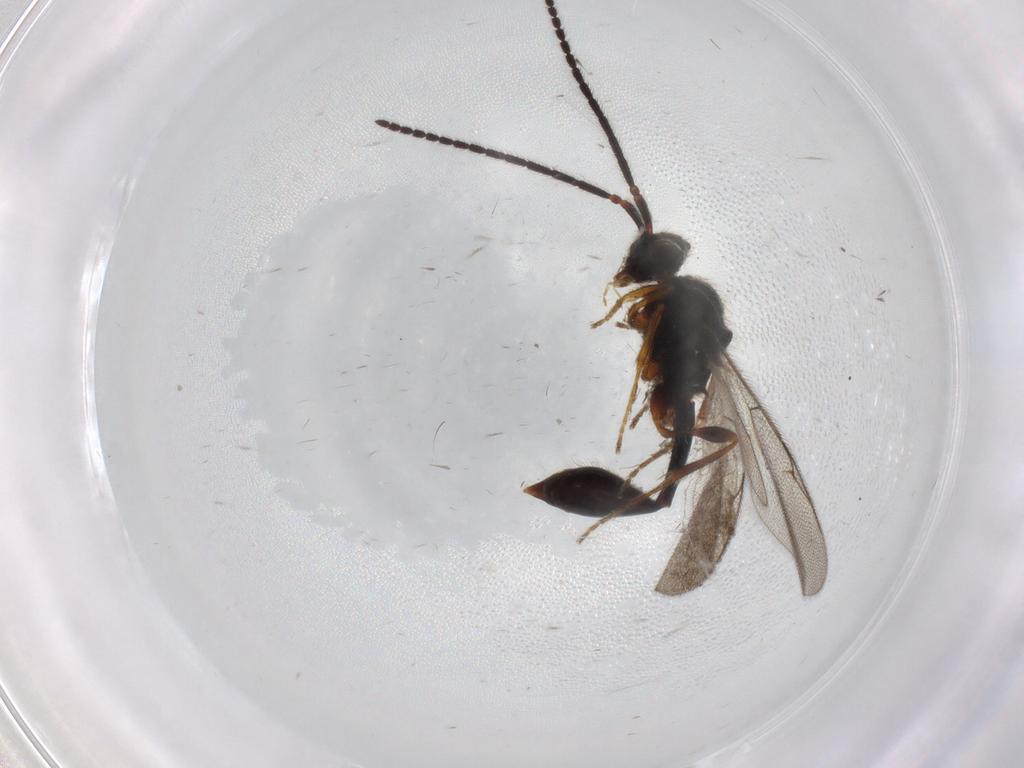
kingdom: Animalia
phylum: Arthropoda
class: Insecta
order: Hymenoptera
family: Diapriidae
